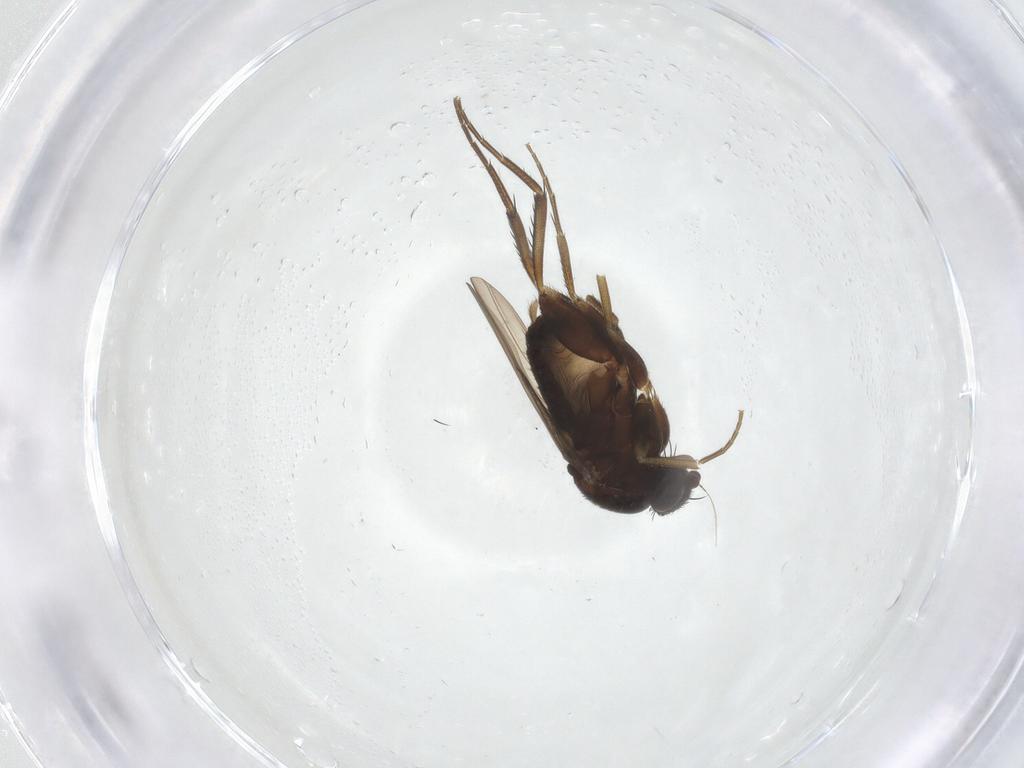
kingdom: Animalia
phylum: Arthropoda
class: Insecta
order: Diptera
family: Phoridae
